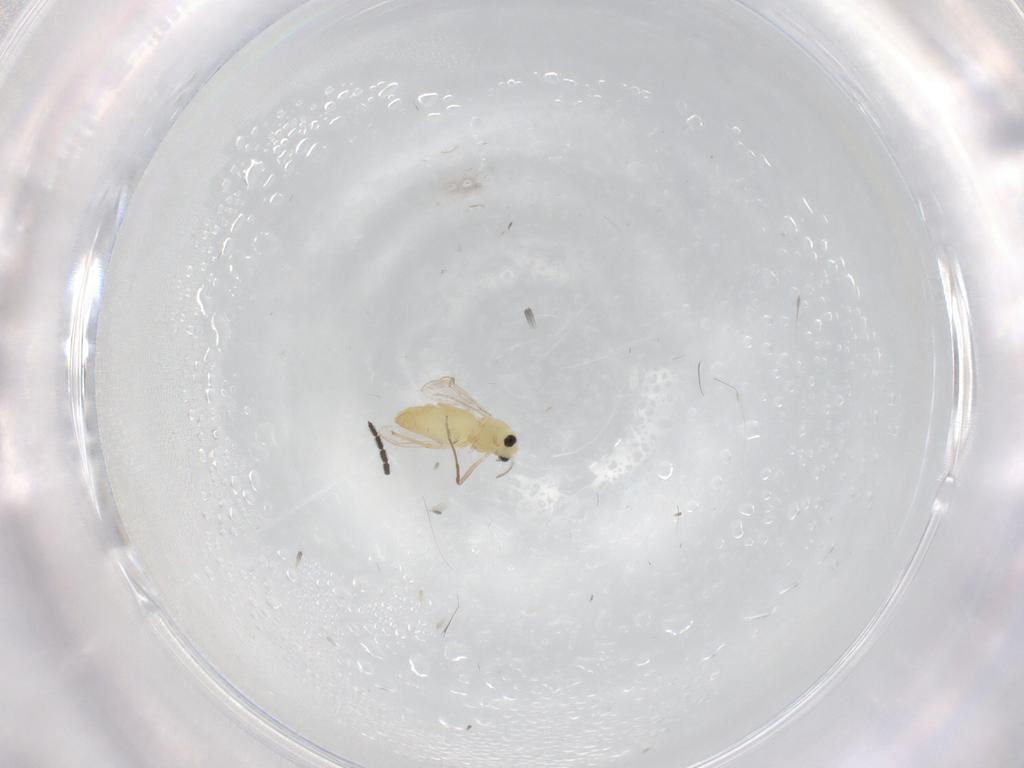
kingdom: Animalia
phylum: Arthropoda
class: Insecta
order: Diptera
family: Chironomidae
